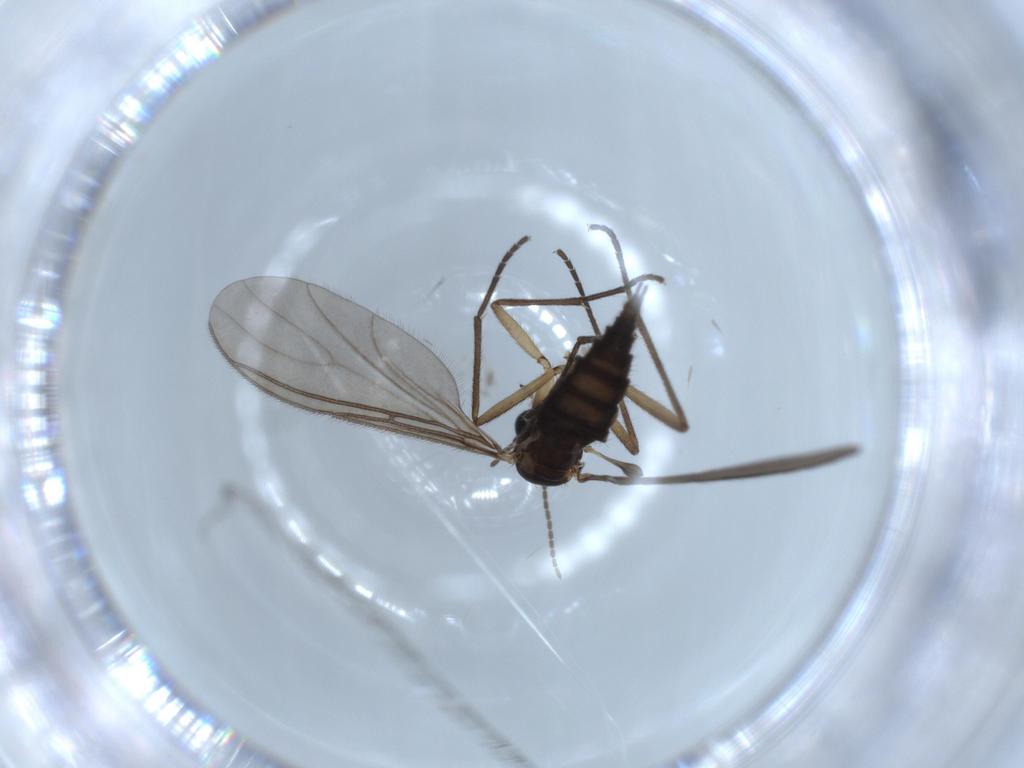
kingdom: Animalia
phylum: Arthropoda
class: Insecta
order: Diptera
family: Sciaridae
